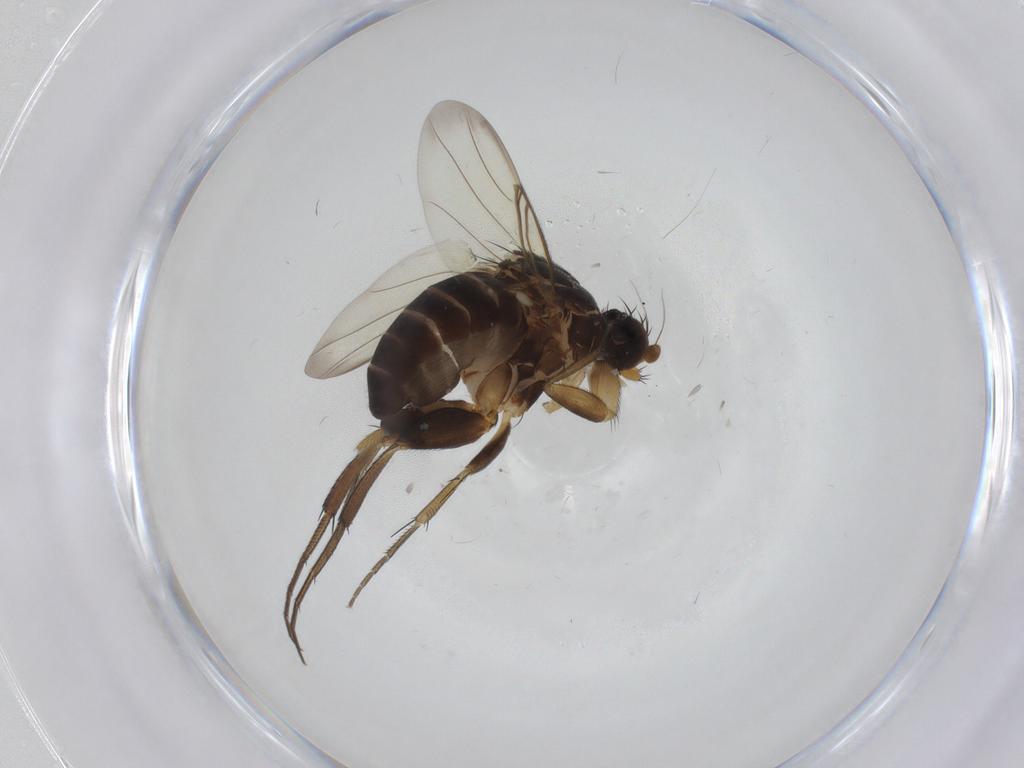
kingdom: Animalia
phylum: Arthropoda
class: Insecta
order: Diptera
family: Phoridae
